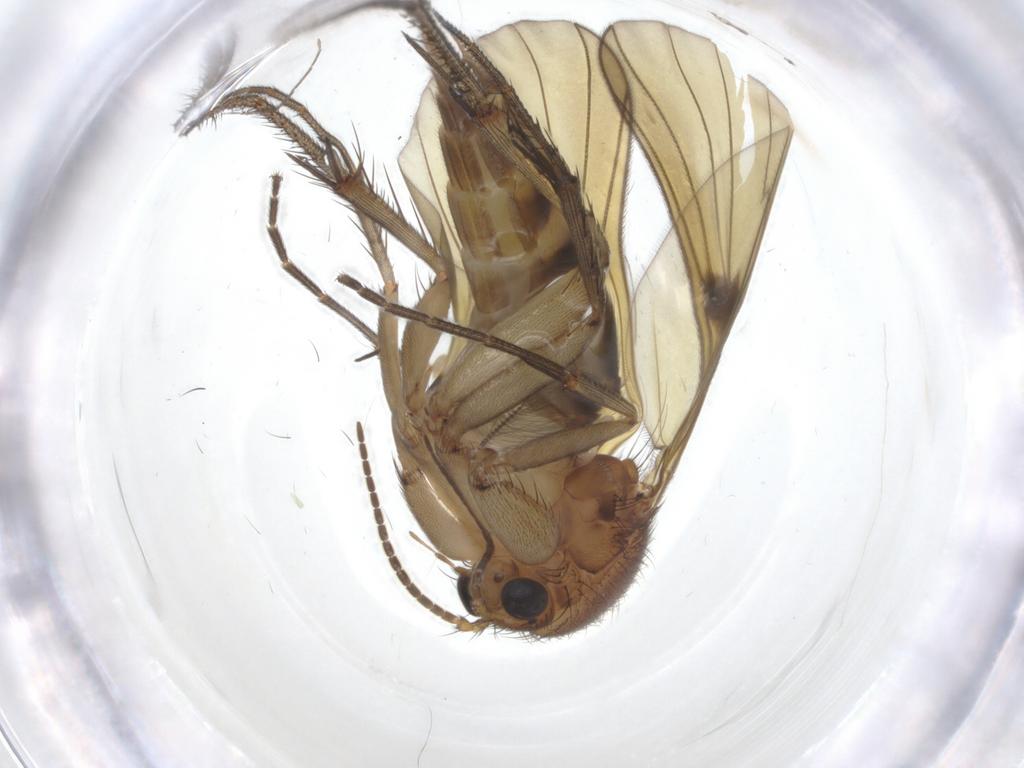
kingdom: Animalia
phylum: Arthropoda
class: Insecta
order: Diptera
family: Chironomidae
